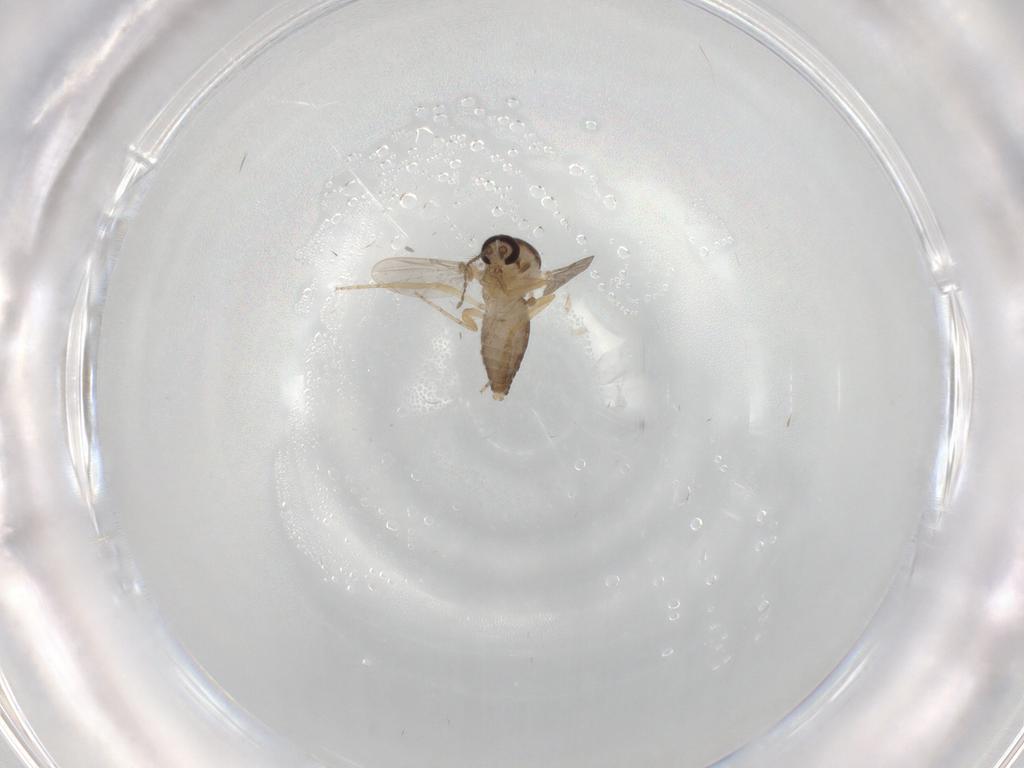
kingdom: Animalia
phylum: Arthropoda
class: Insecta
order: Diptera
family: Ceratopogonidae
